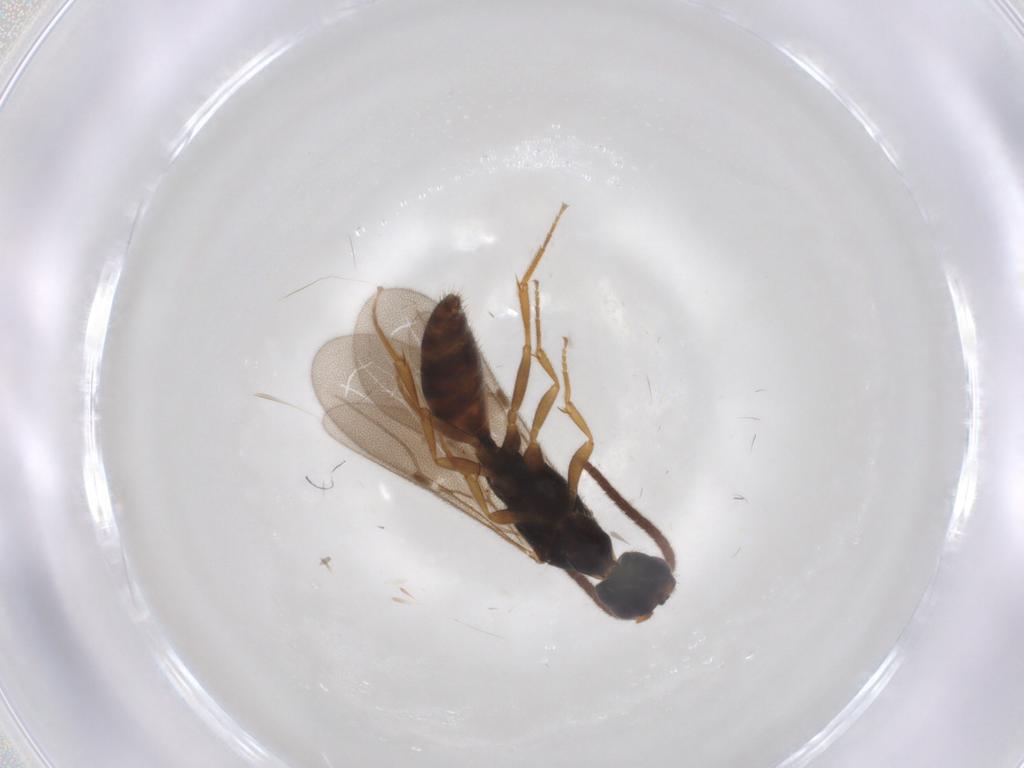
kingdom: Animalia
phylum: Arthropoda
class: Insecta
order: Hymenoptera
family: Bethylidae
